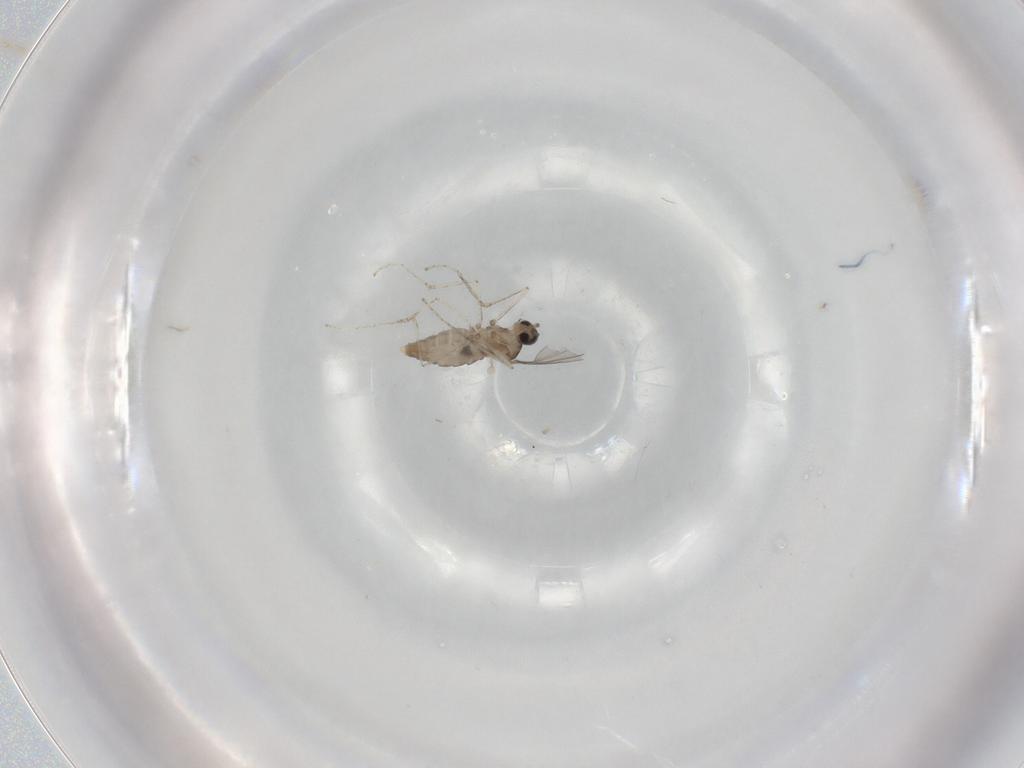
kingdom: Animalia
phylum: Arthropoda
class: Insecta
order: Diptera
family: Cecidomyiidae
